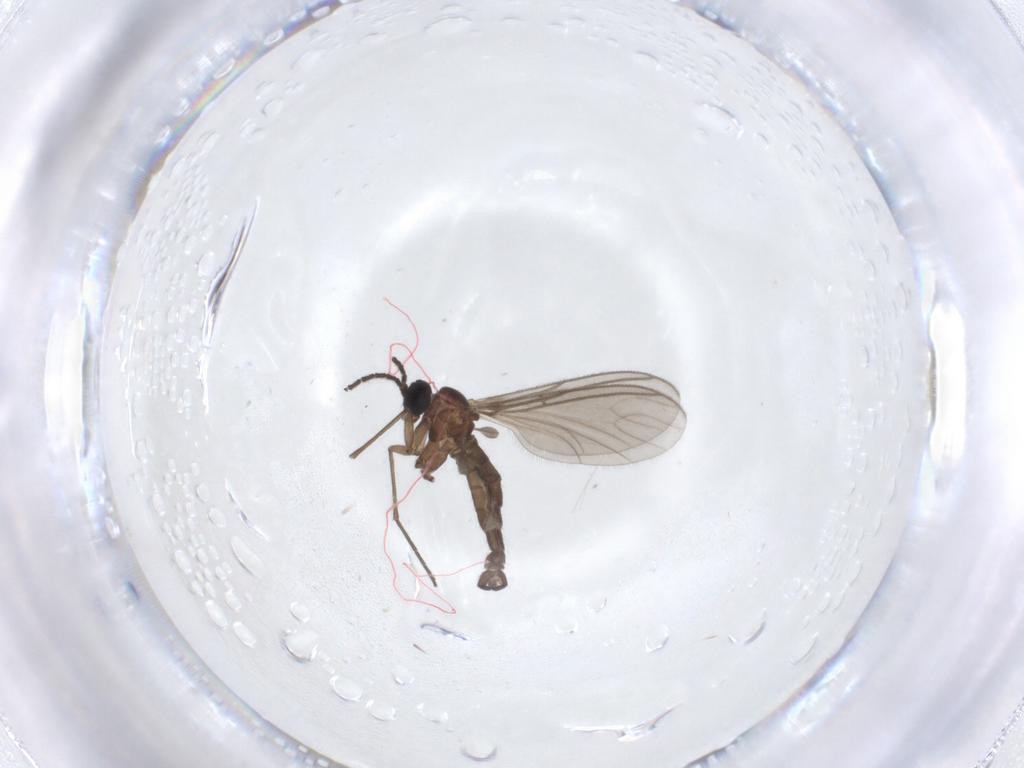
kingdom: Animalia
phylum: Arthropoda
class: Insecta
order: Diptera
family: Sciaridae
